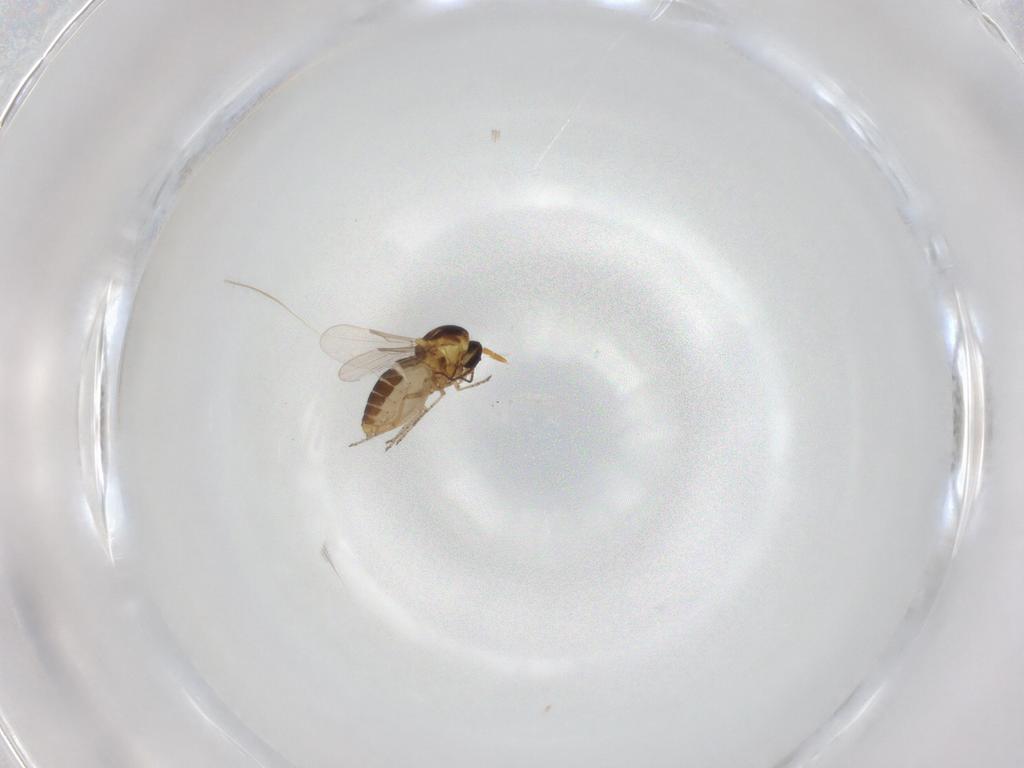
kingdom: Animalia
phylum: Arthropoda
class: Insecta
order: Diptera
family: Ceratopogonidae
